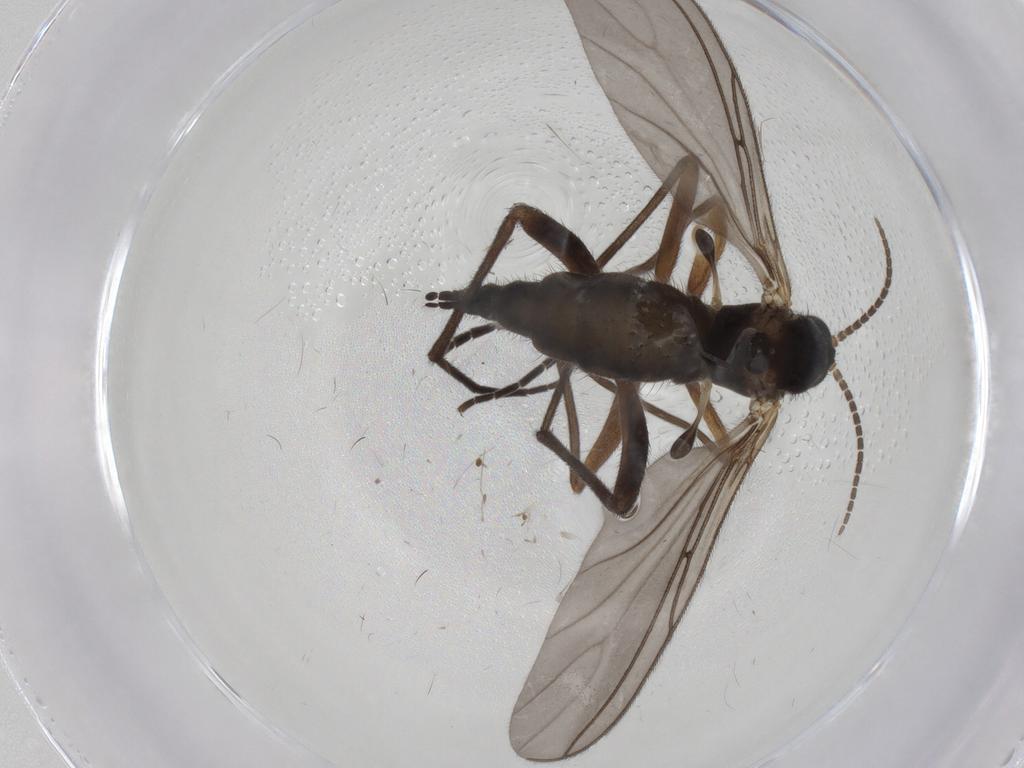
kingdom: Animalia
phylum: Arthropoda
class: Insecta
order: Diptera
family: Sciaridae
